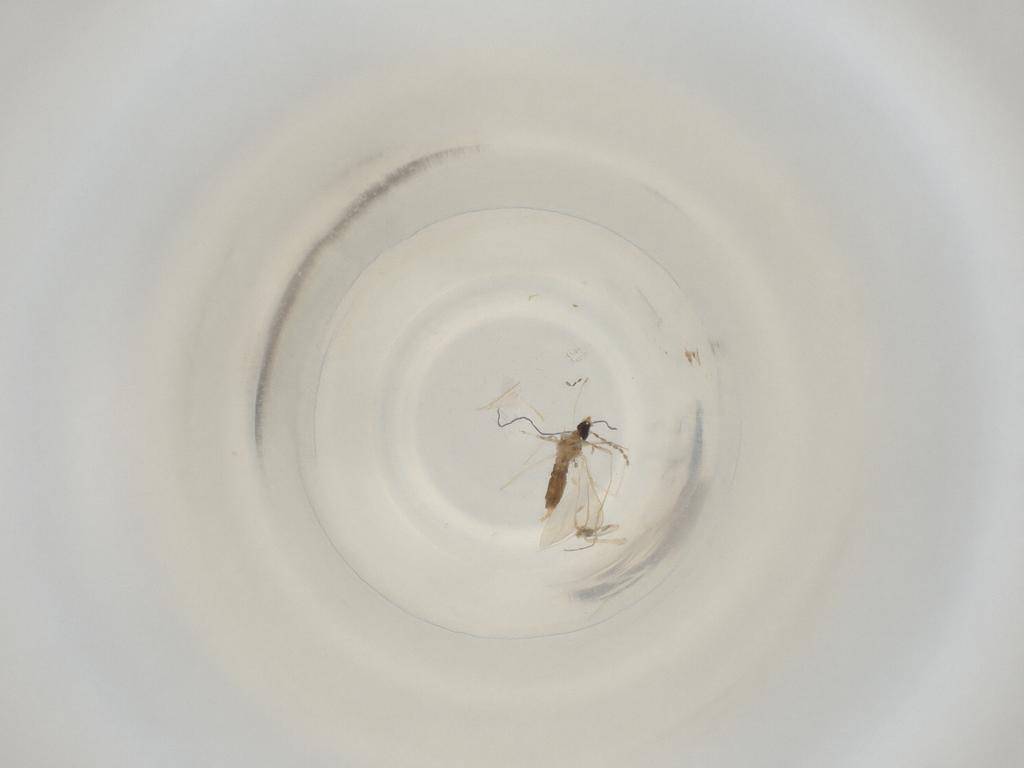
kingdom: Animalia
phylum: Arthropoda
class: Insecta
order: Diptera
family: Cecidomyiidae
